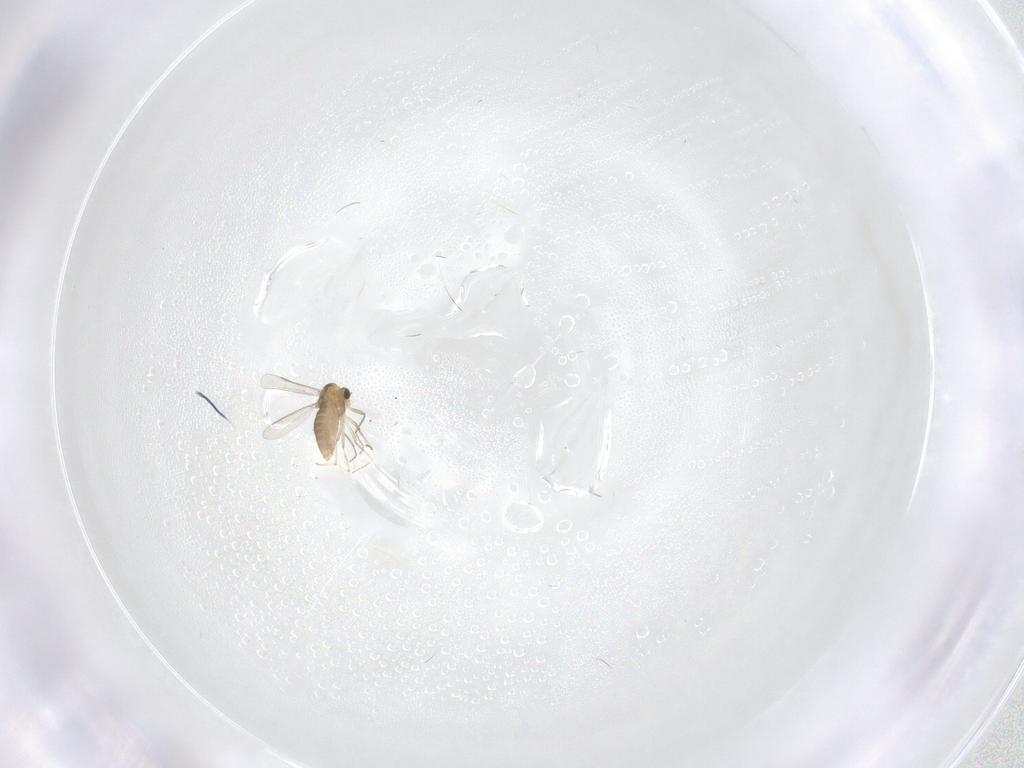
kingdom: Animalia
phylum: Arthropoda
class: Insecta
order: Diptera
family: Chironomidae
